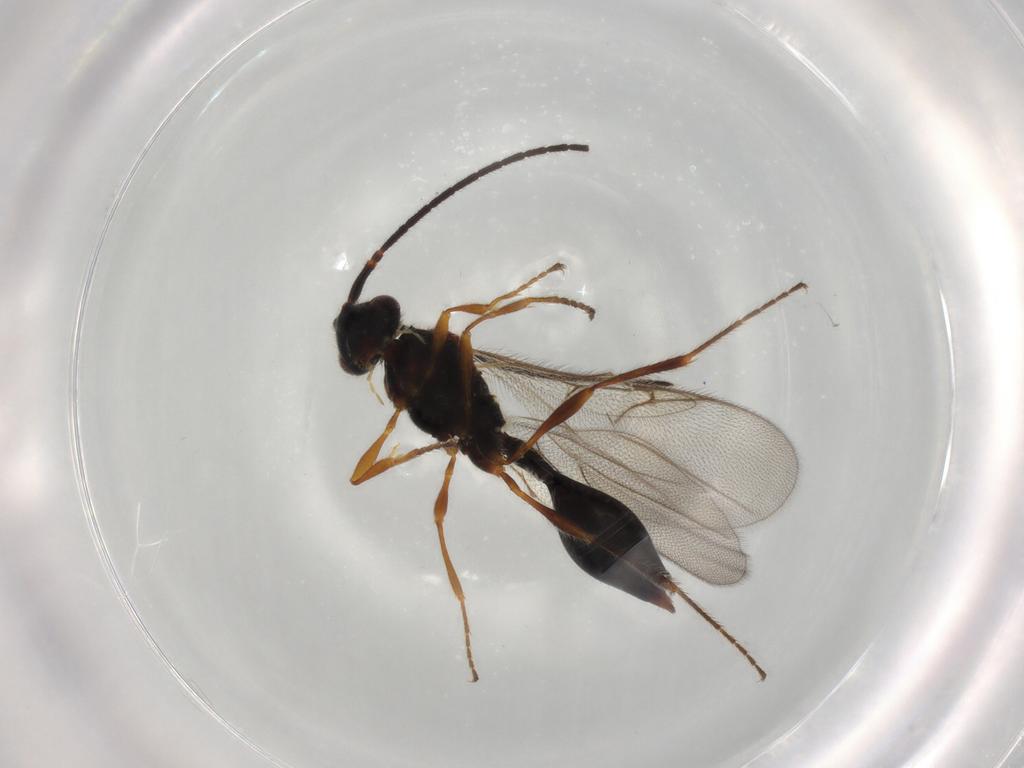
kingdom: Animalia
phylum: Arthropoda
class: Insecta
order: Hymenoptera
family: Diapriidae
